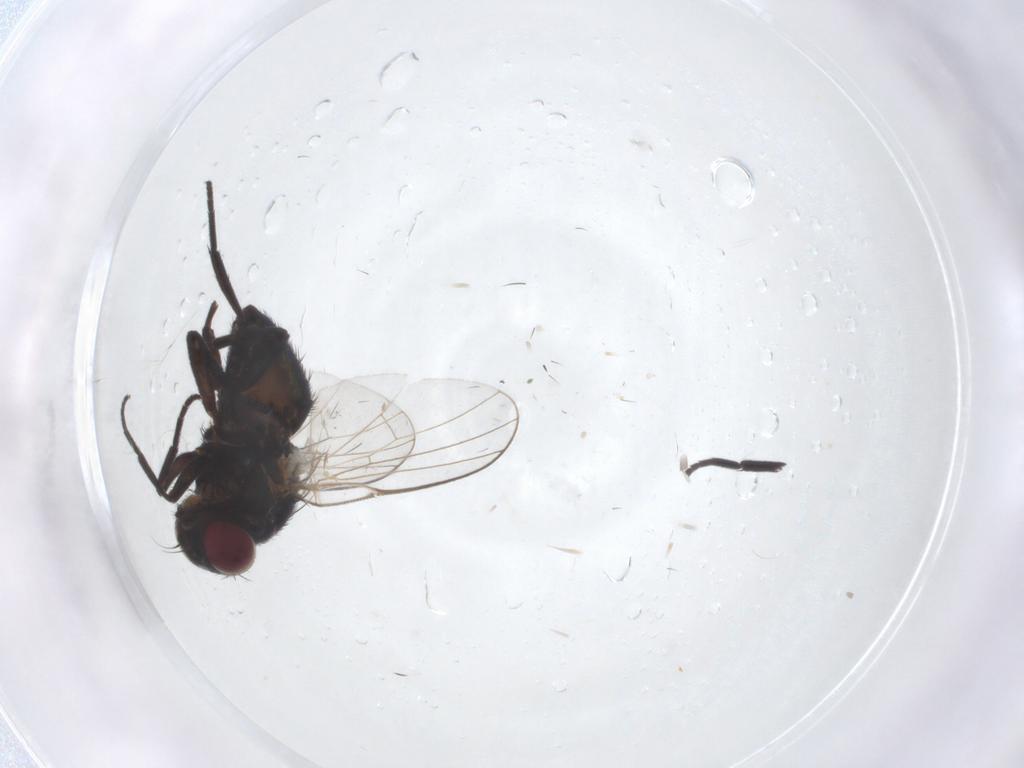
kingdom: Animalia
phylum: Arthropoda
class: Insecta
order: Diptera
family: Agromyzidae
